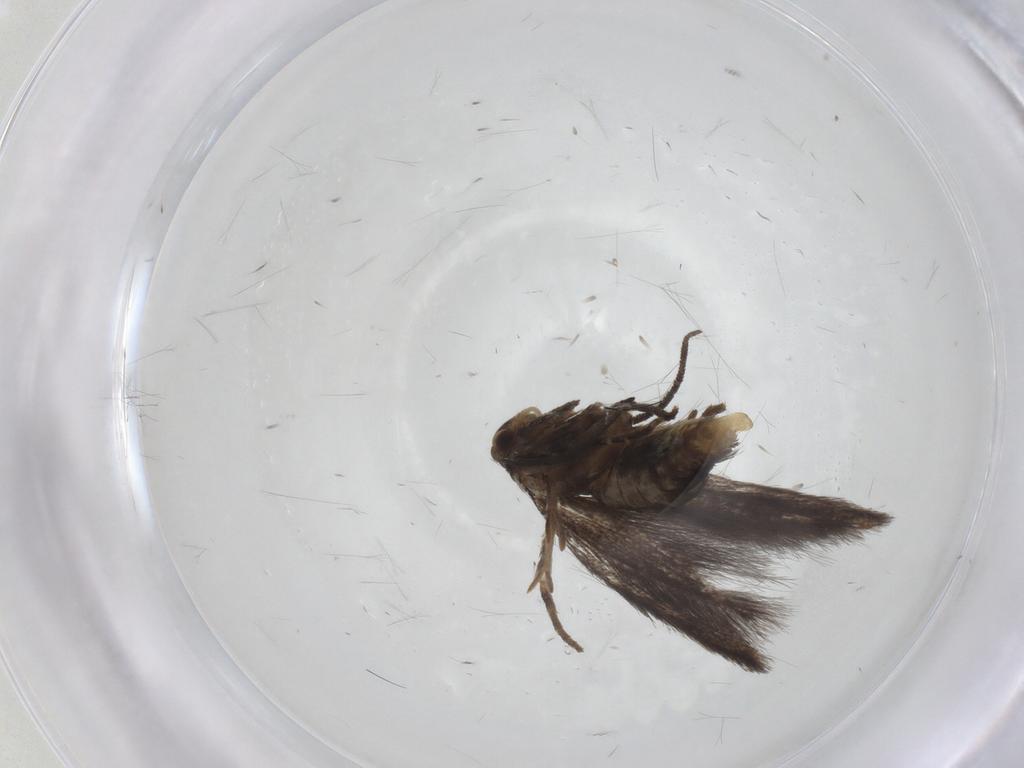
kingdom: Animalia
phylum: Arthropoda
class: Insecta
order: Lepidoptera
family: Elachistidae
